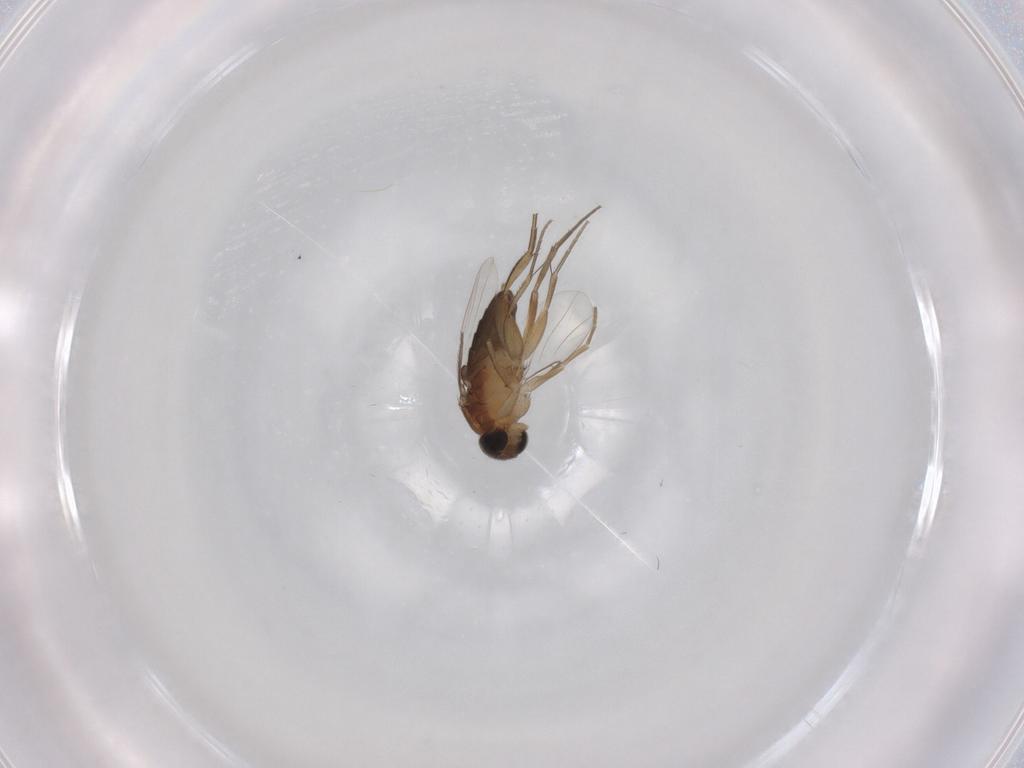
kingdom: Animalia
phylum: Arthropoda
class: Insecta
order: Diptera
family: Phoridae
